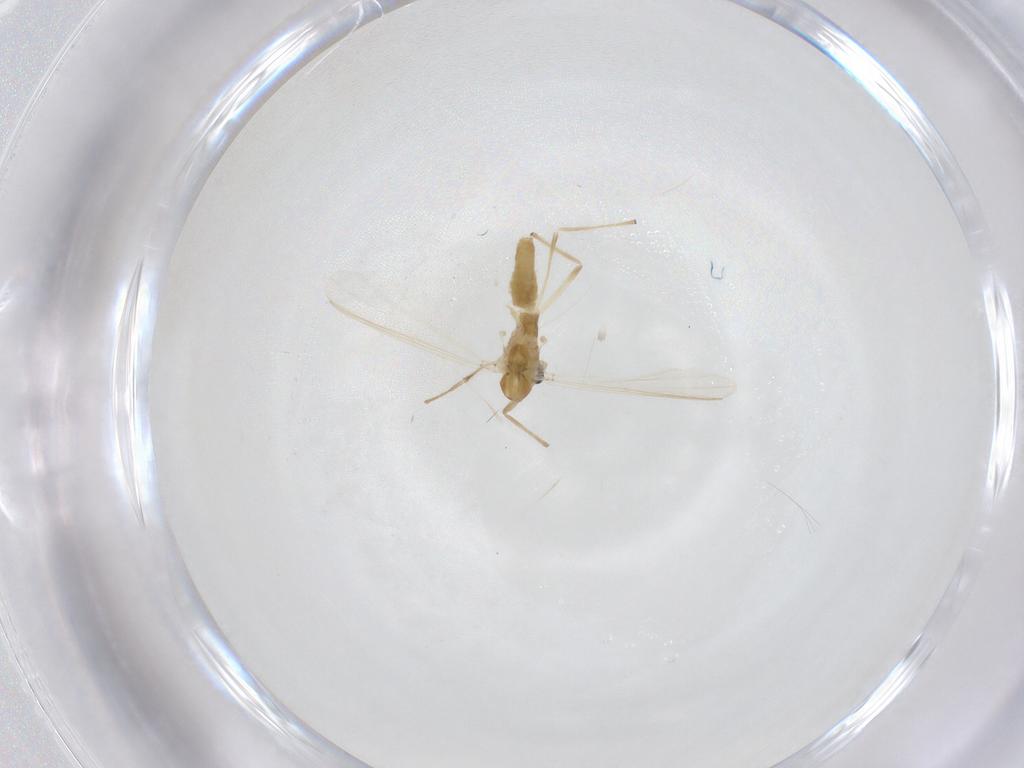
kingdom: Animalia
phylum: Arthropoda
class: Insecta
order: Diptera
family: Chironomidae
